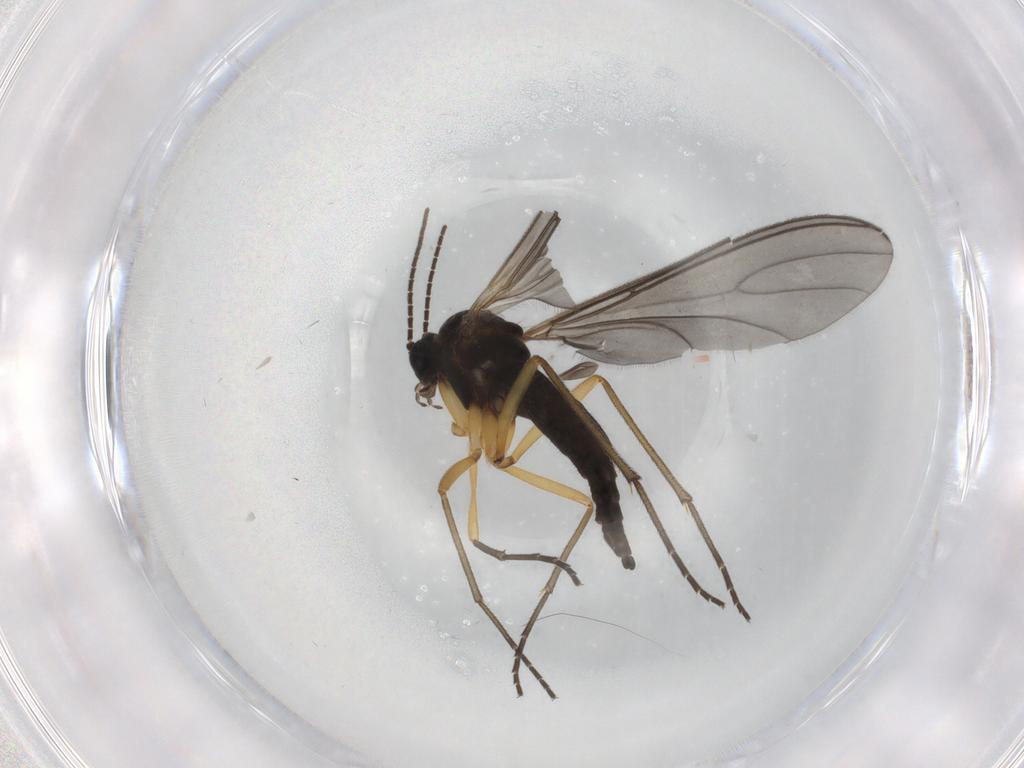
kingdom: Animalia
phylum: Arthropoda
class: Insecta
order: Diptera
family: Sciaridae
